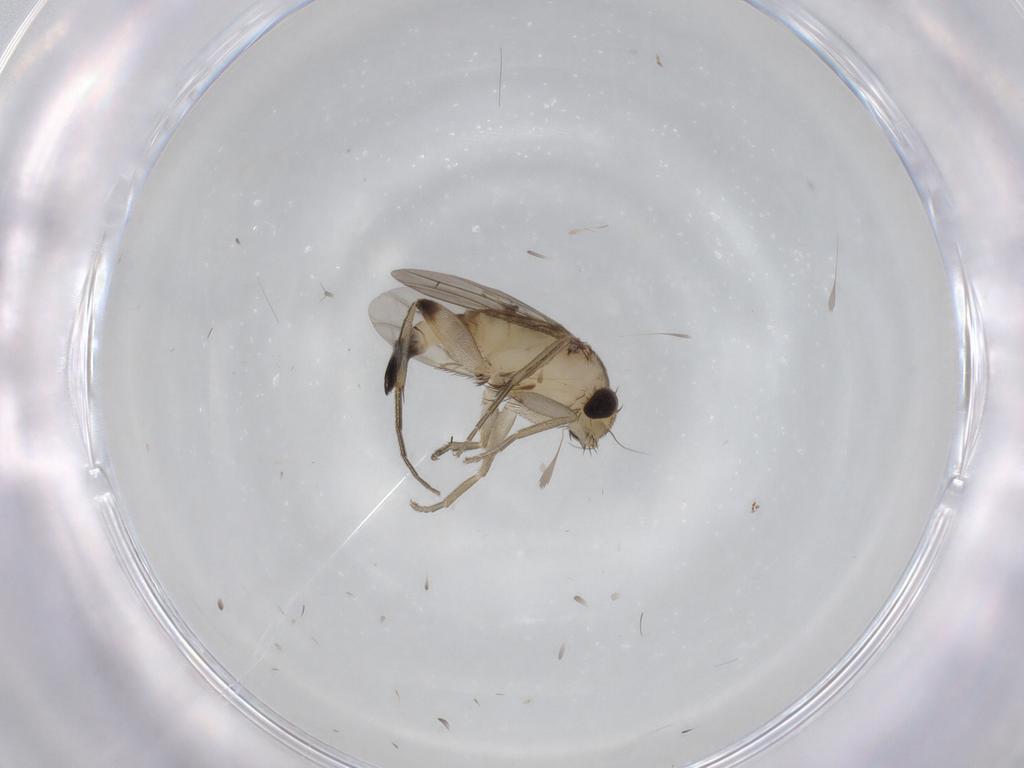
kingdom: Animalia
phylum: Arthropoda
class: Insecta
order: Diptera
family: Phoridae
